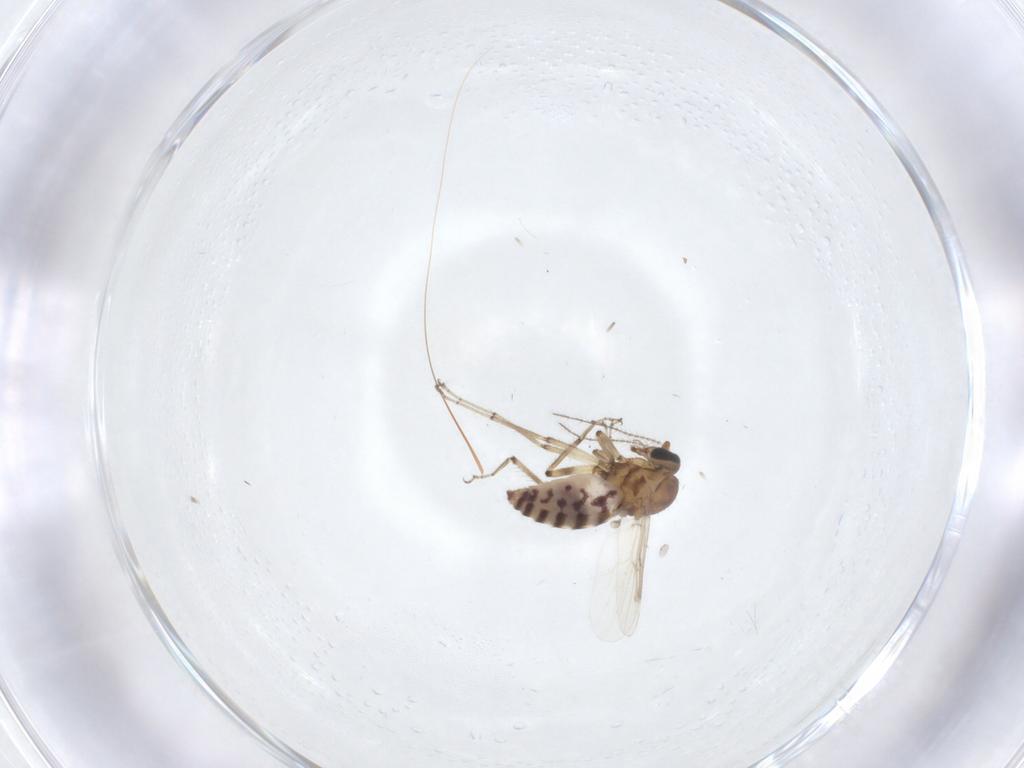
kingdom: Animalia
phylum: Arthropoda
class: Insecta
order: Diptera
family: Ceratopogonidae
